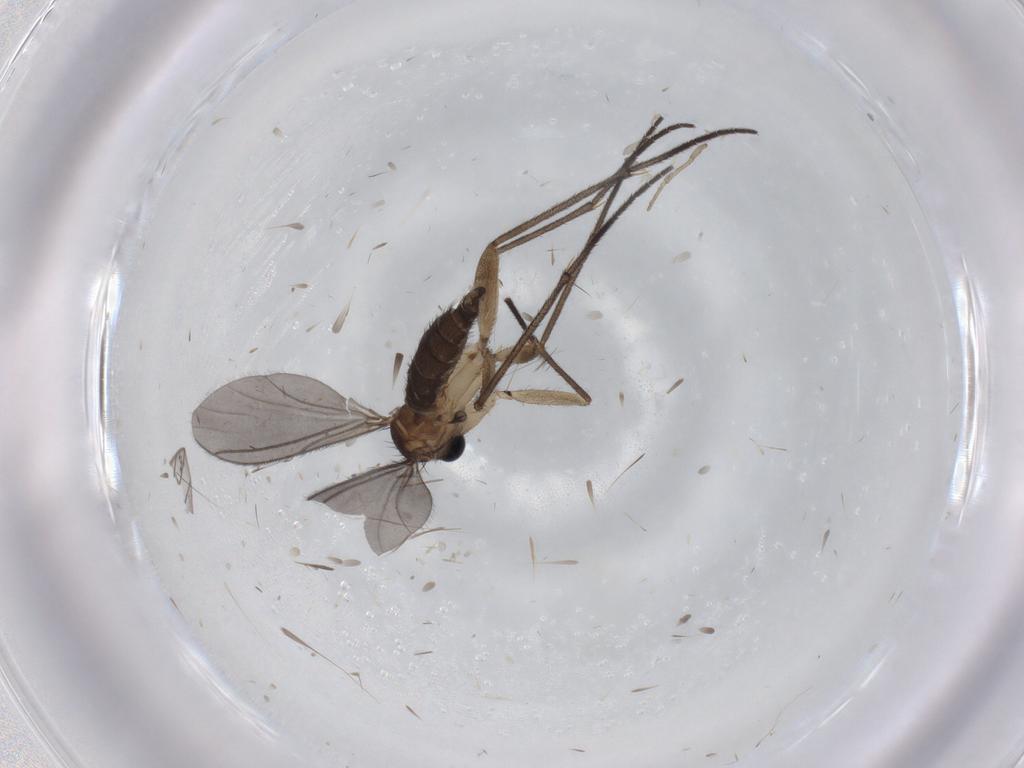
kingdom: Animalia
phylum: Arthropoda
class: Insecta
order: Diptera
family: Sciaridae
